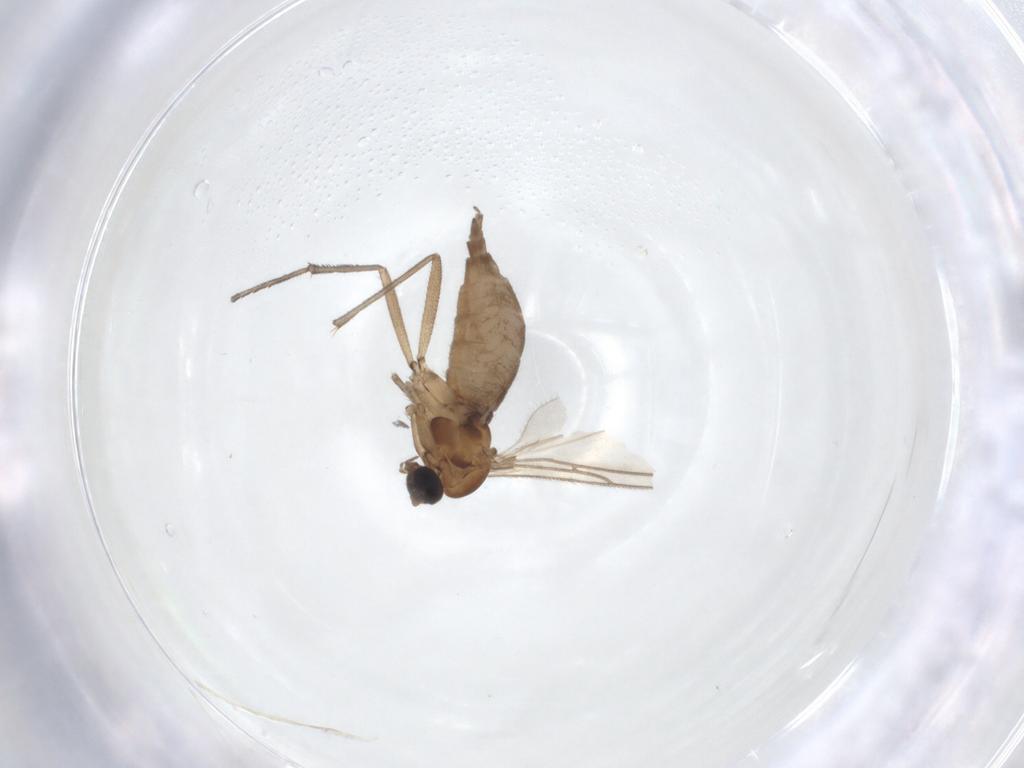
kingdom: Animalia
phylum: Arthropoda
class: Insecta
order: Diptera
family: Sciaridae
